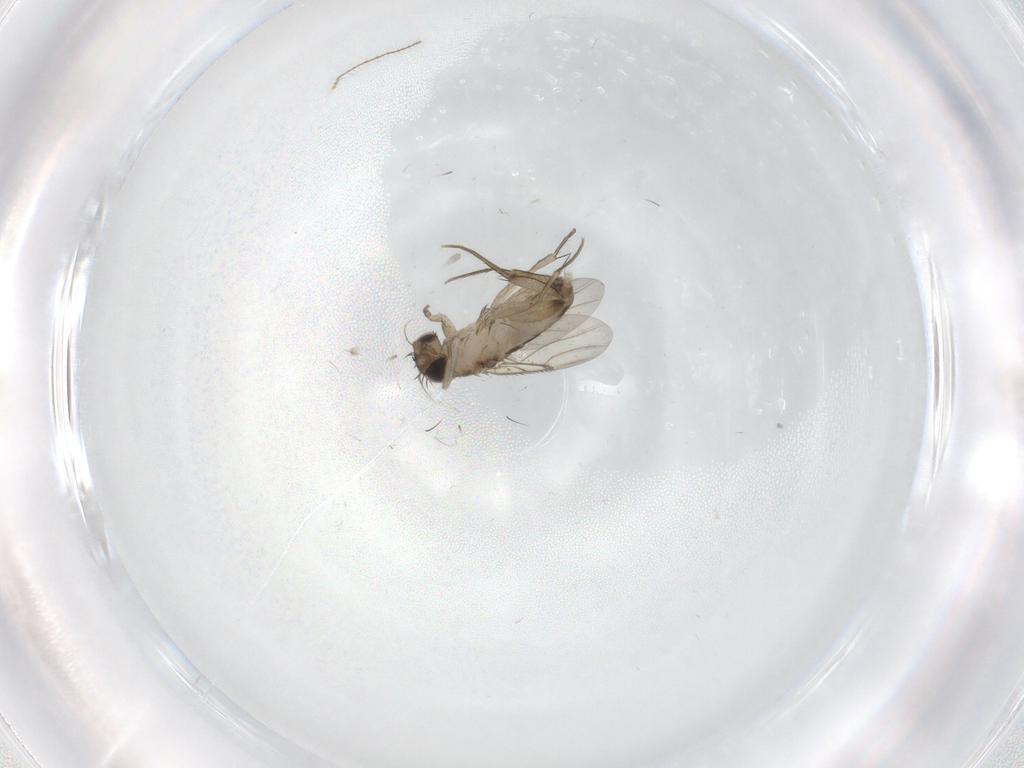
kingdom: Animalia
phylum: Arthropoda
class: Insecta
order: Diptera
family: Phoridae
